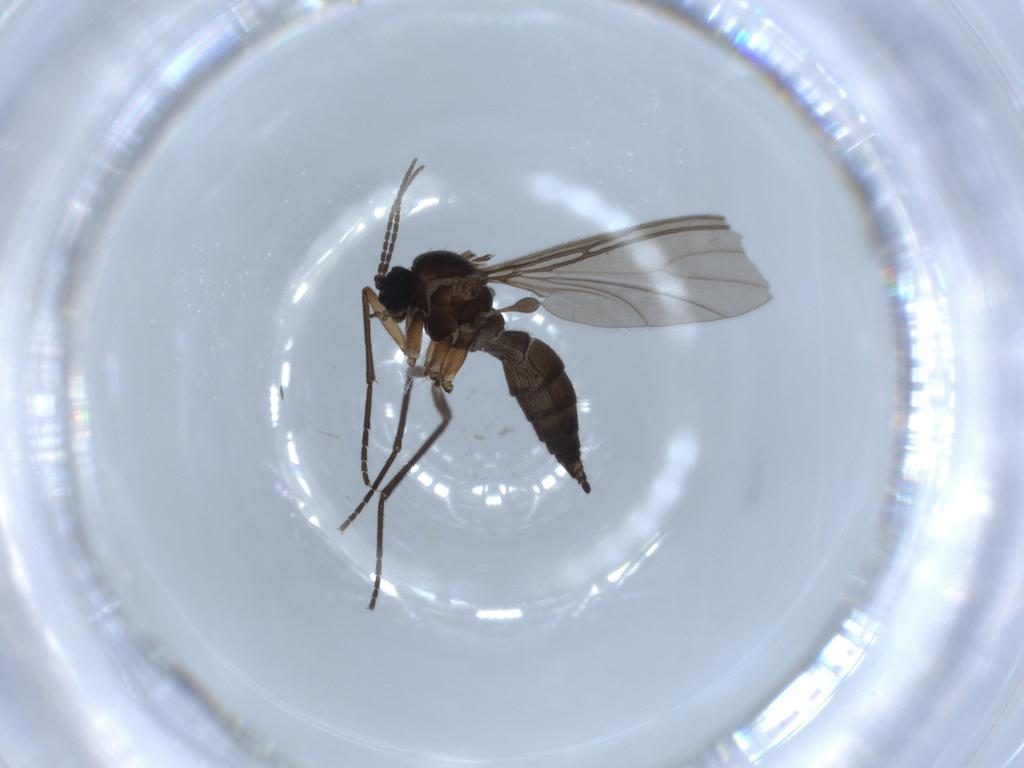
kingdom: Animalia
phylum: Arthropoda
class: Insecta
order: Diptera
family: Sciaridae
